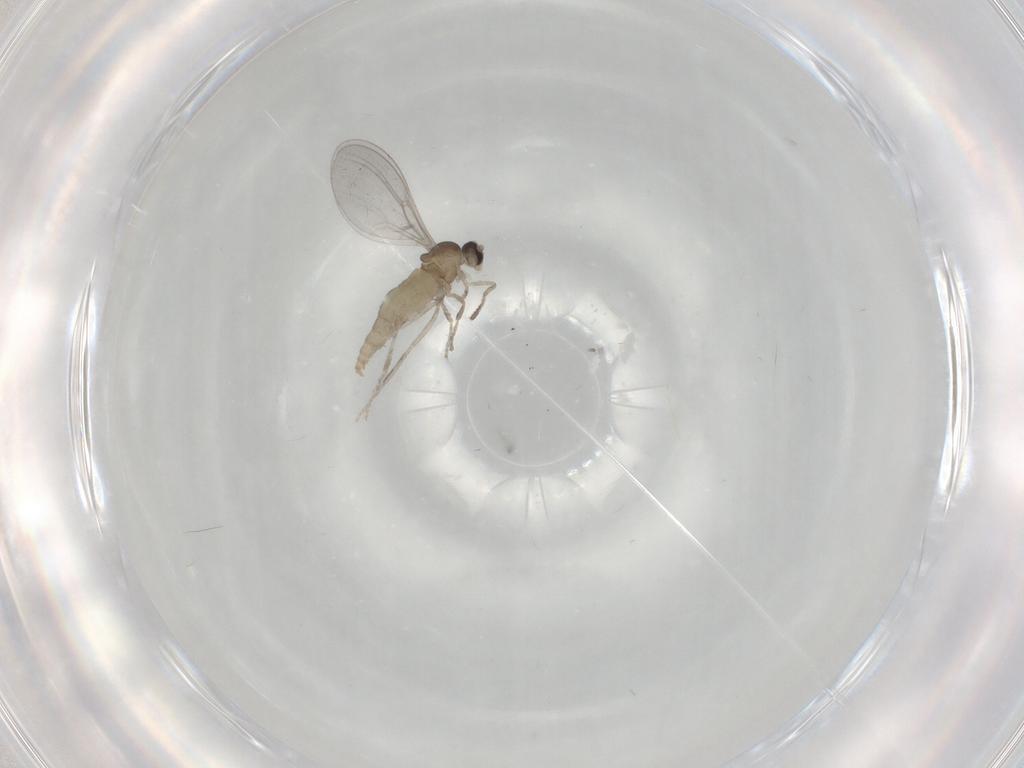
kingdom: Animalia
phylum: Arthropoda
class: Insecta
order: Diptera
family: Cecidomyiidae
